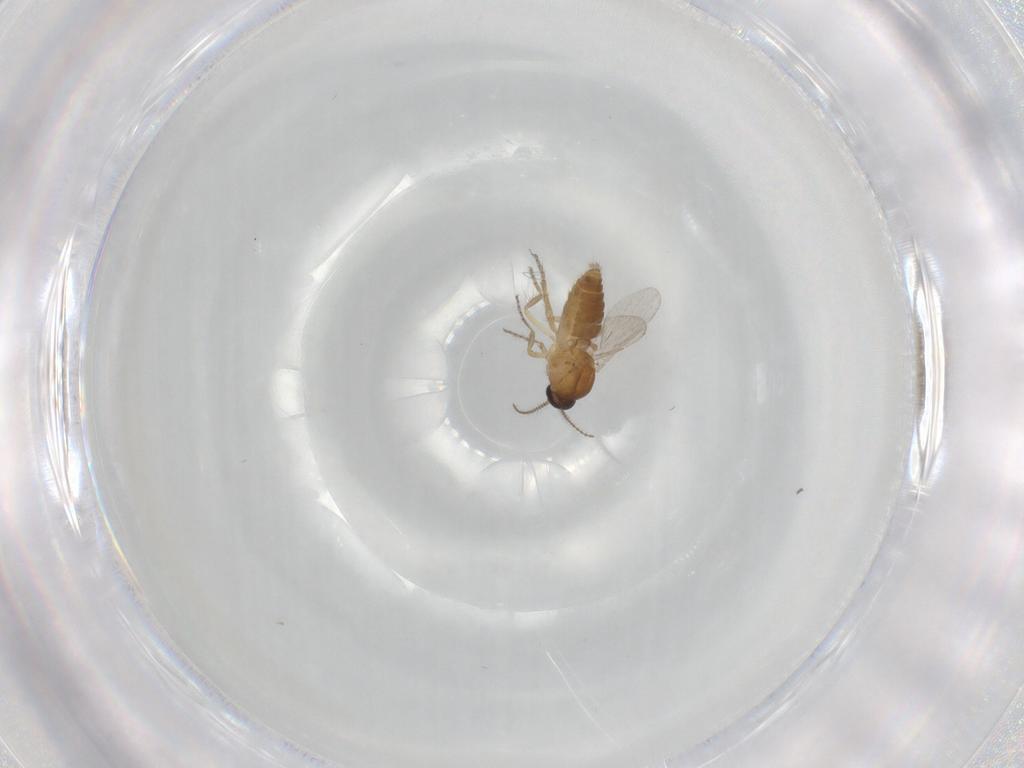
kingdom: Animalia
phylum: Arthropoda
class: Insecta
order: Diptera
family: Ceratopogonidae
